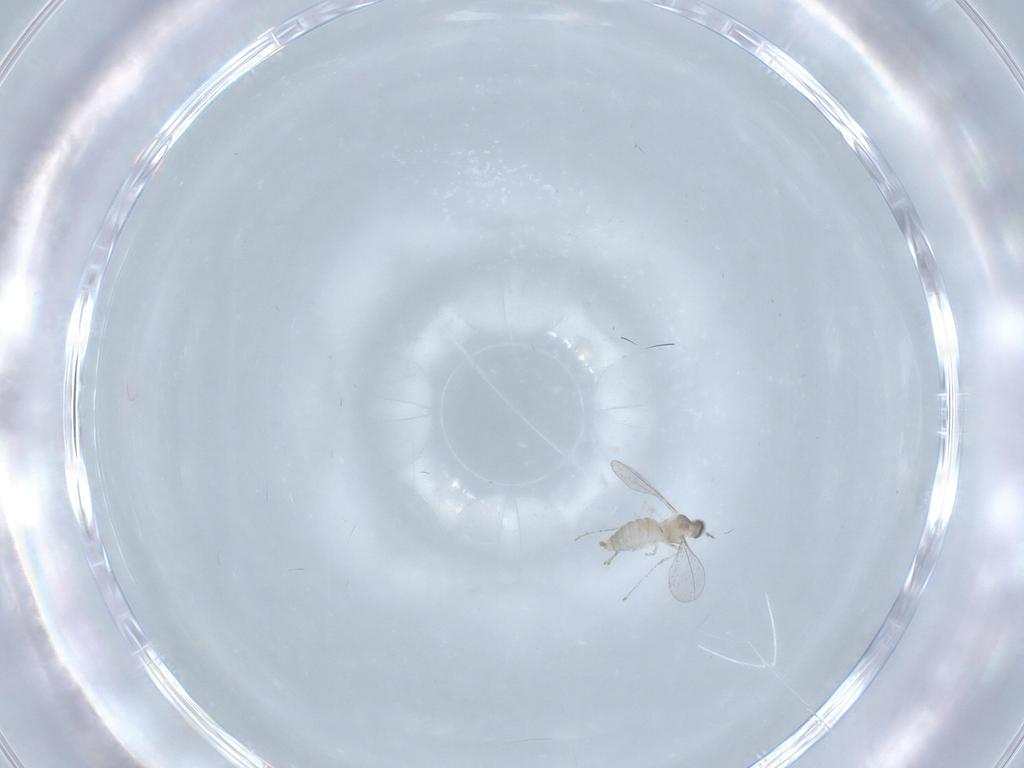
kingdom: Animalia
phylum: Arthropoda
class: Insecta
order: Diptera
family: Cecidomyiidae
